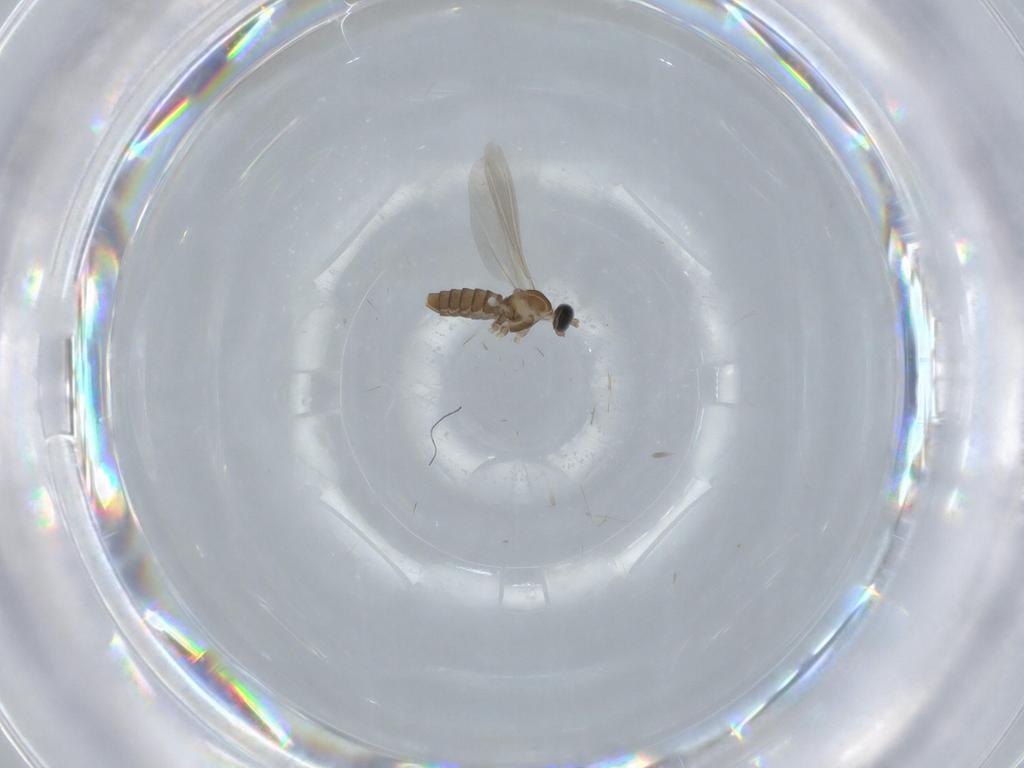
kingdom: Animalia
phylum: Arthropoda
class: Insecta
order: Diptera
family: Cecidomyiidae
